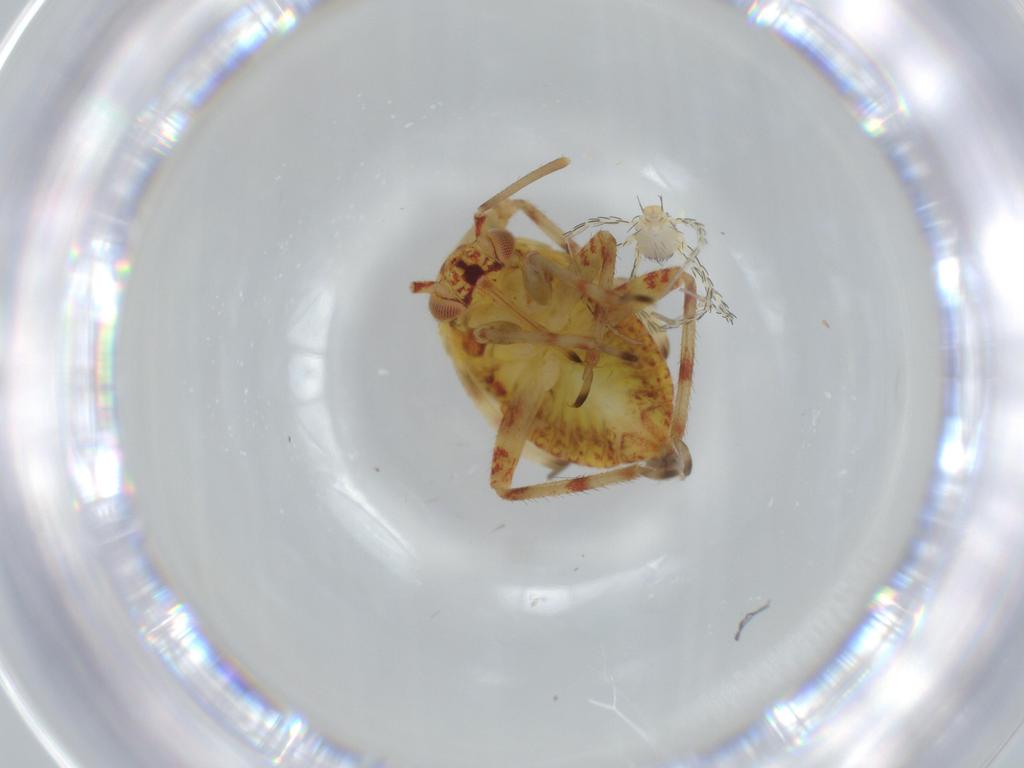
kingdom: Animalia
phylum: Arthropoda
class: Insecta
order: Hemiptera
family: Miridae
